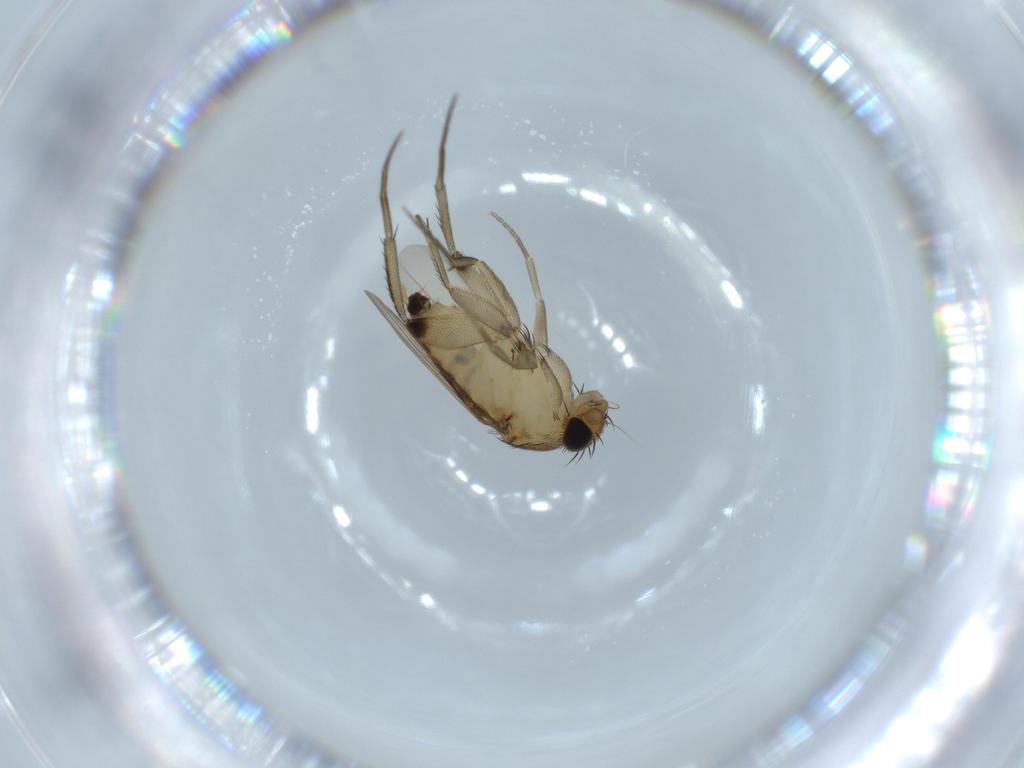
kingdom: Animalia
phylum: Arthropoda
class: Insecta
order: Diptera
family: Phoridae
